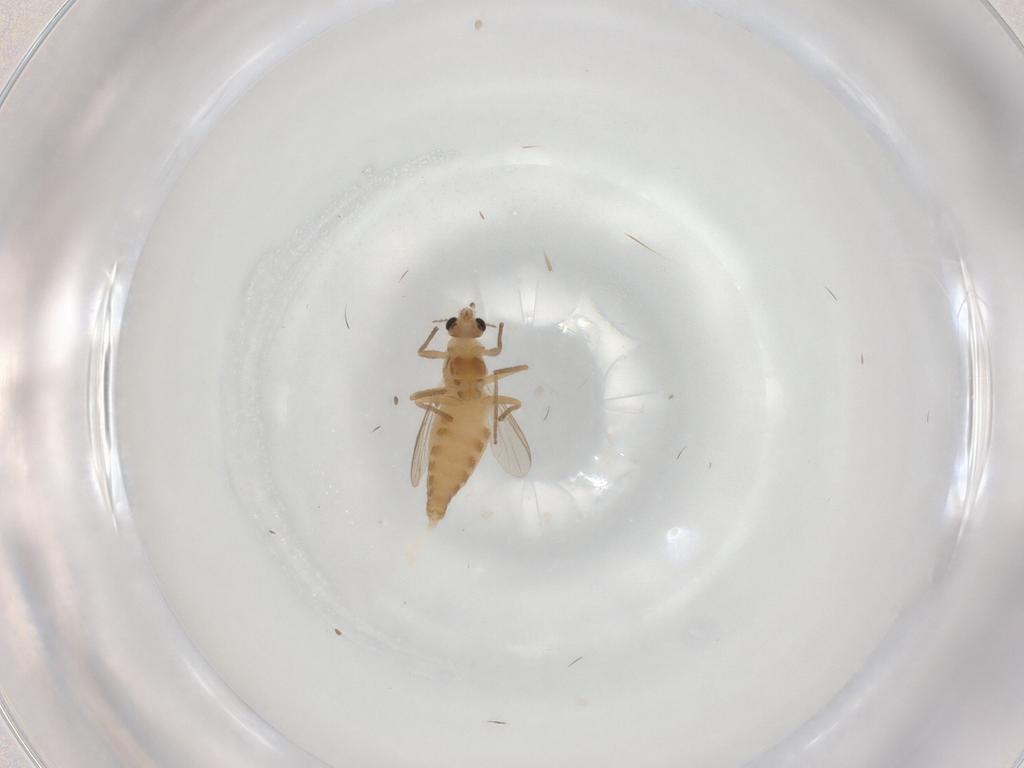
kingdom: Animalia
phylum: Arthropoda
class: Insecta
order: Diptera
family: Chironomidae
